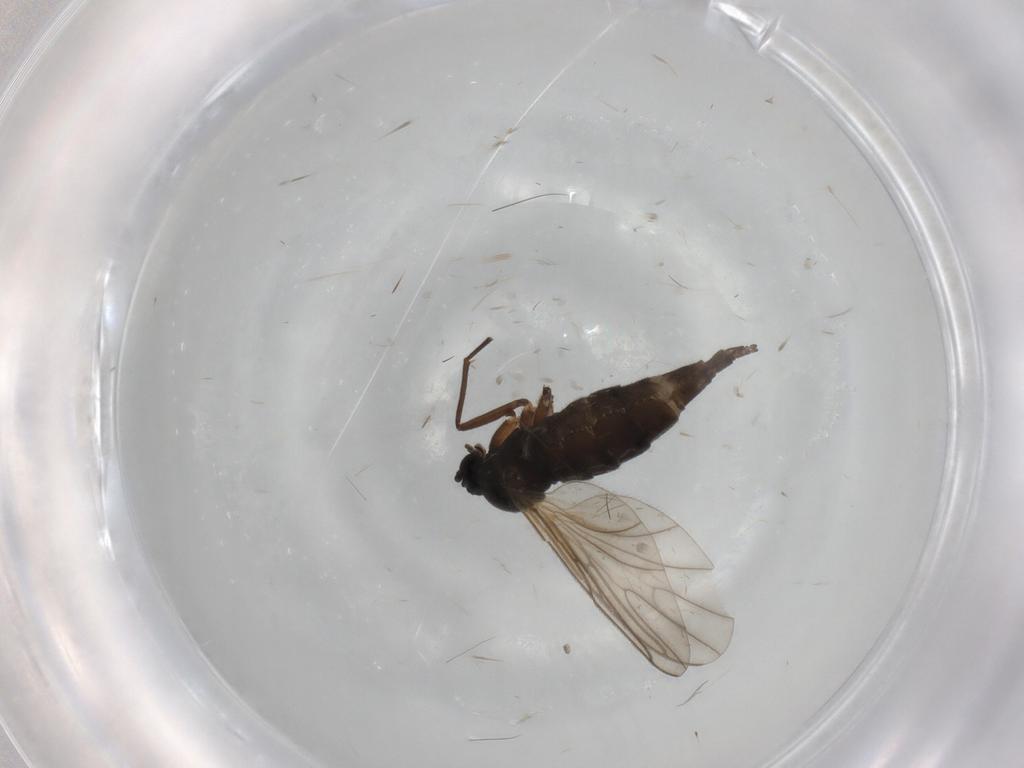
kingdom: Animalia
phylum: Arthropoda
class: Insecta
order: Diptera
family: Sciaridae
